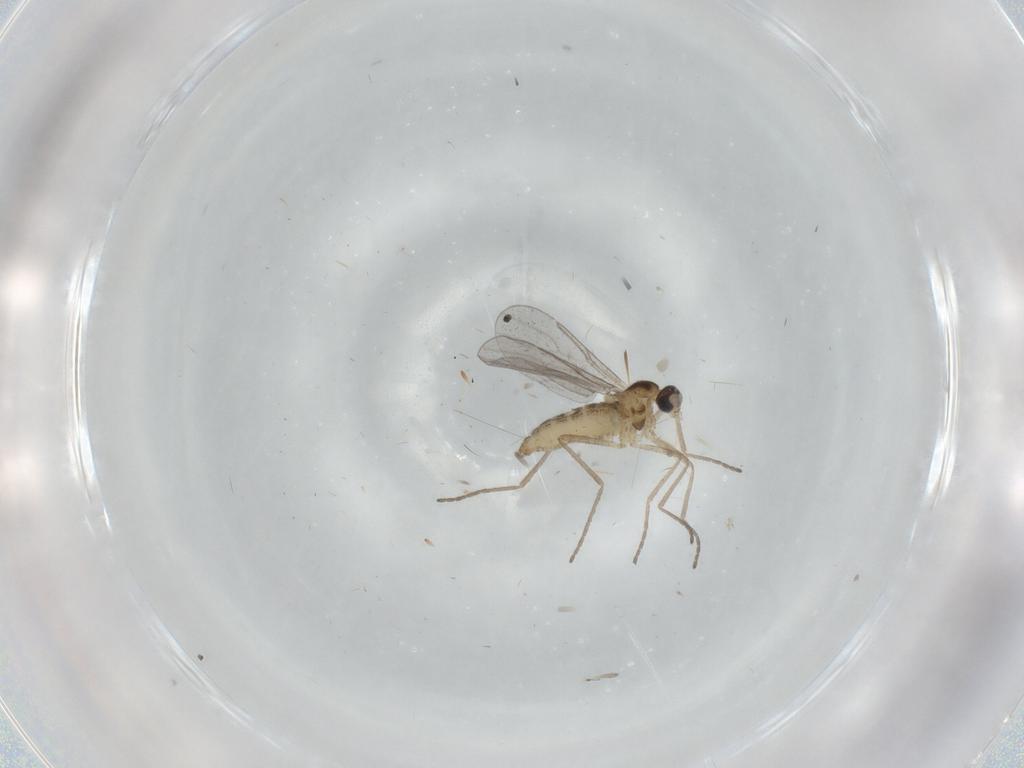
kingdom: Animalia
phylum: Arthropoda
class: Insecta
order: Diptera
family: Cecidomyiidae
